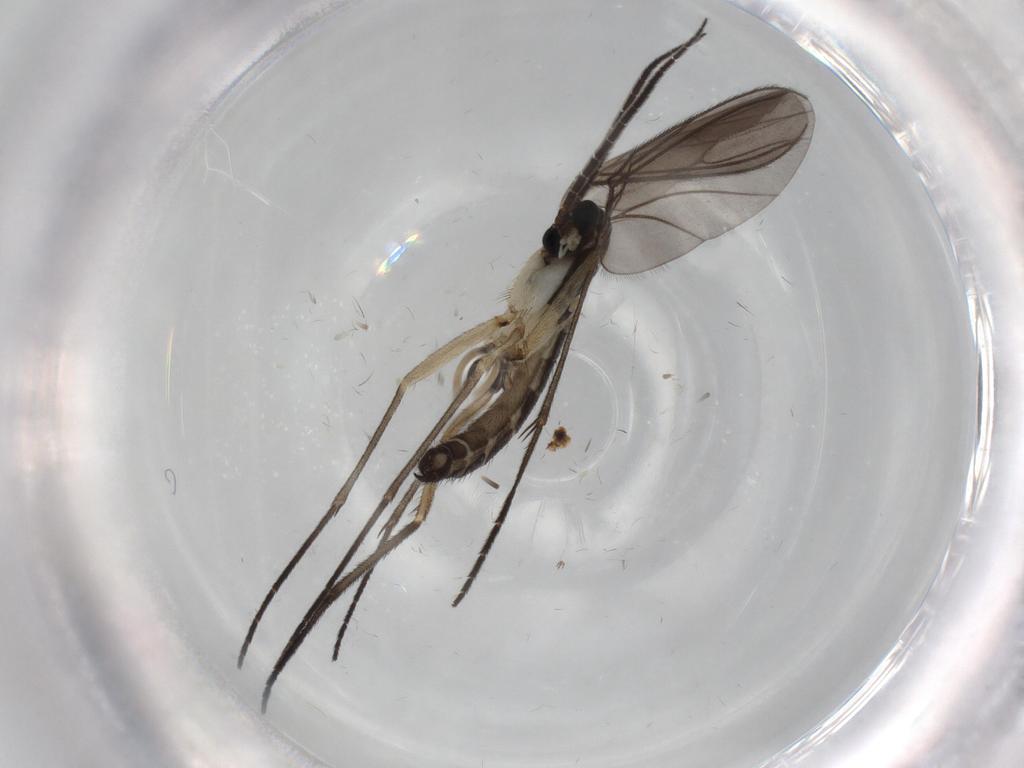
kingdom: Animalia
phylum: Arthropoda
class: Insecta
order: Diptera
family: Sciaridae
